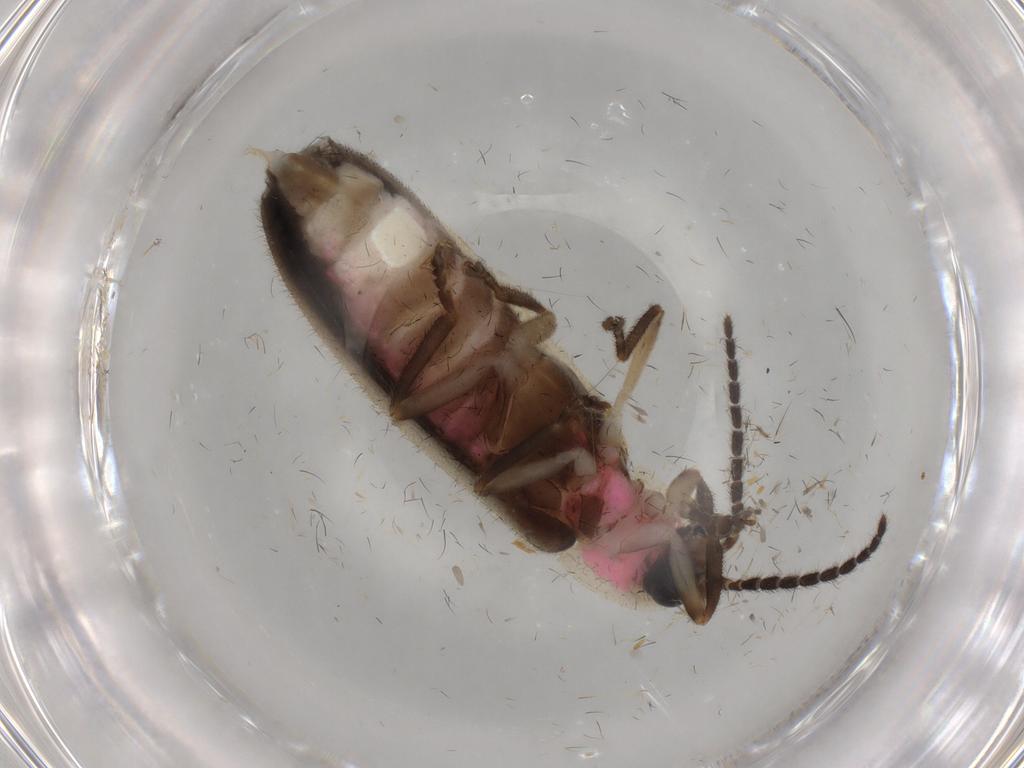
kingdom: Animalia
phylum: Arthropoda
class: Insecta
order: Coleoptera
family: Lampyridae
